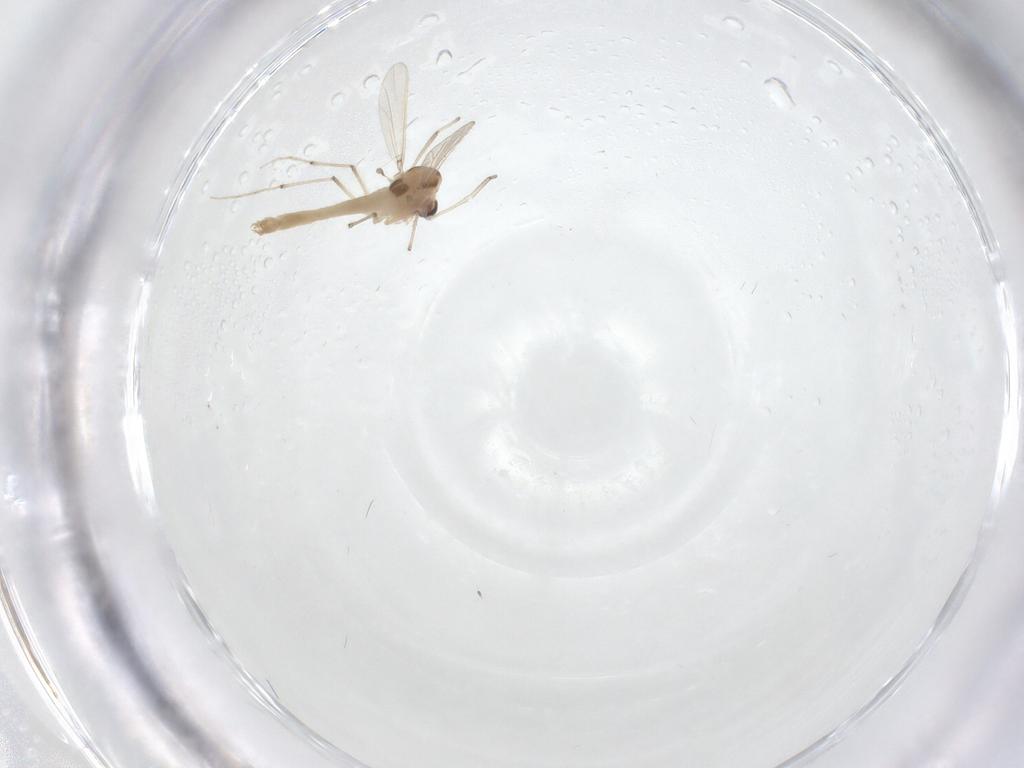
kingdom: Animalia
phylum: Arthropoda
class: Insecta
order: Diptera
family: Chironomidae
